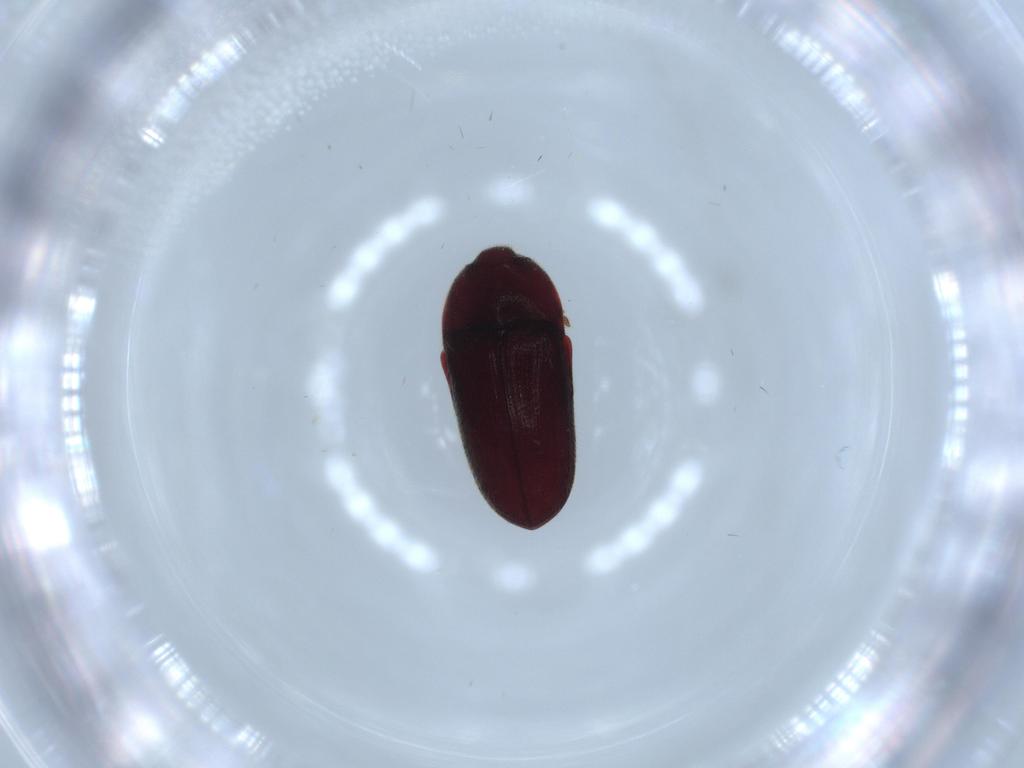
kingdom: Animalia
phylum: Arthropoda
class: Insecta
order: Coleoptera
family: Throscidae
